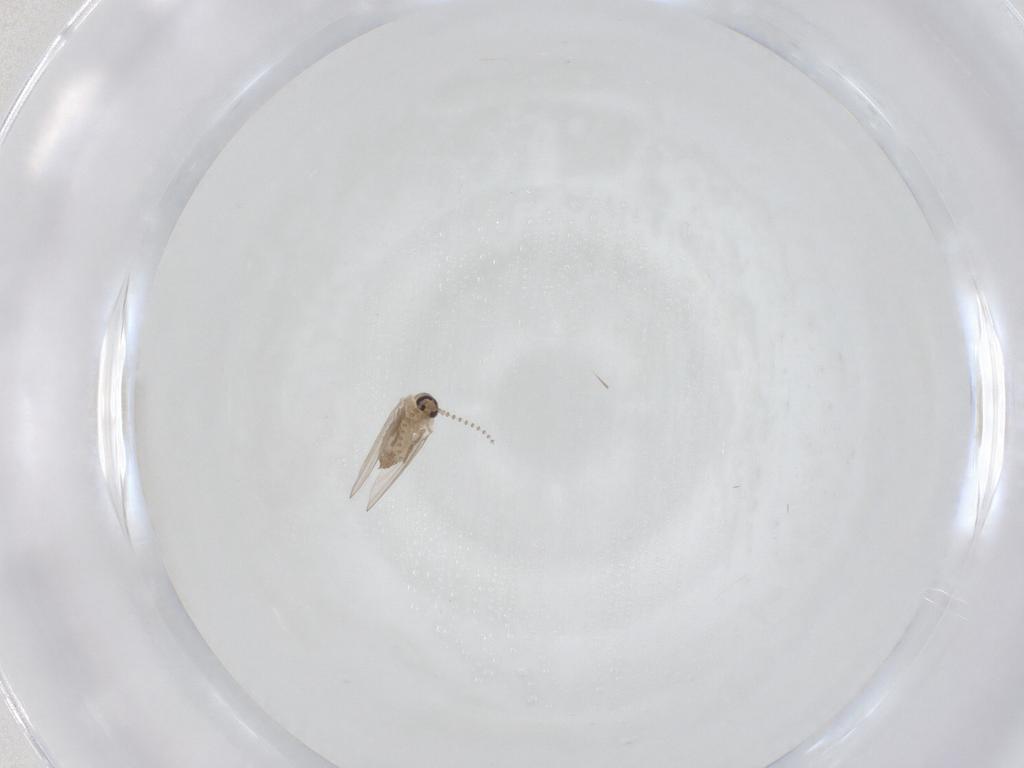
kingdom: Animalia
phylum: Arthropoda
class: Insecta
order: Diptera
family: Psychodidae
